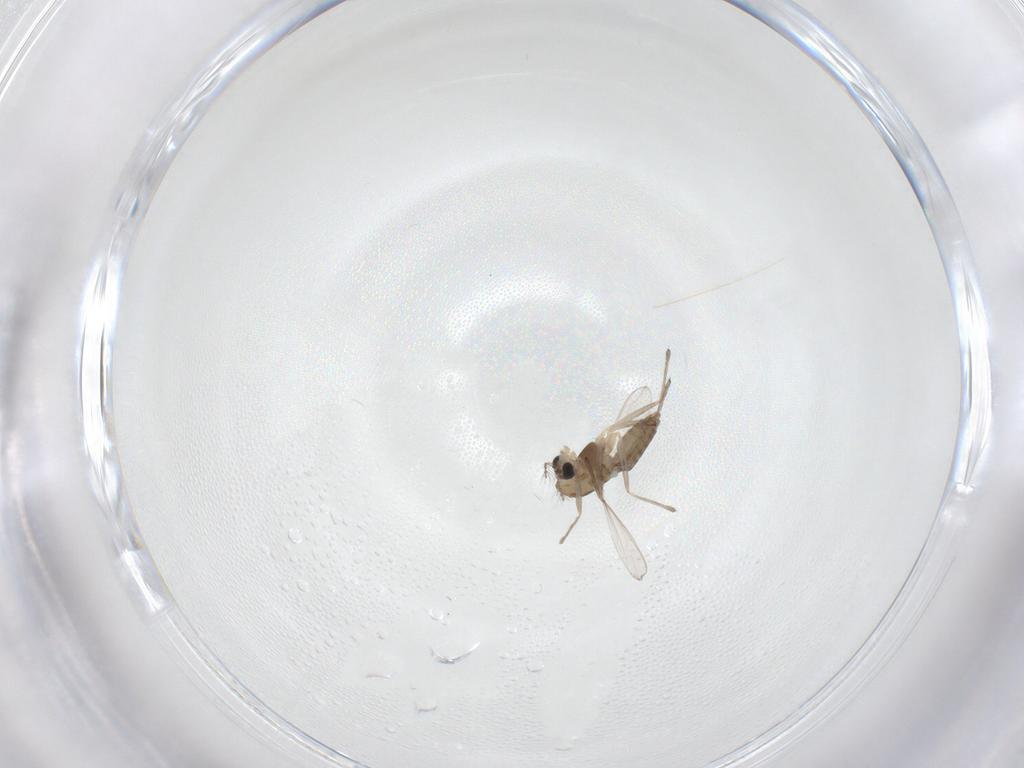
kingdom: Animalia
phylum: Arthropoda
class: Insecta
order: Diptera
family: Chironomidae
